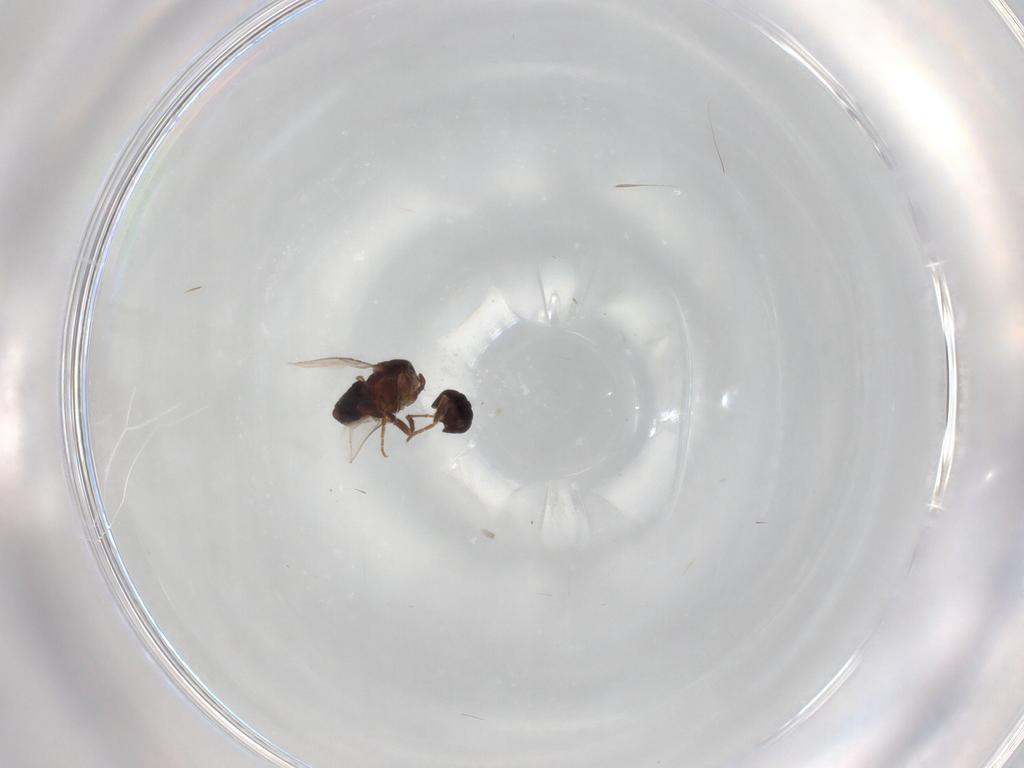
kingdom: Animalia
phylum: Arthropoda
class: Insecta
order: Diptera
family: Sphaeroceridae
